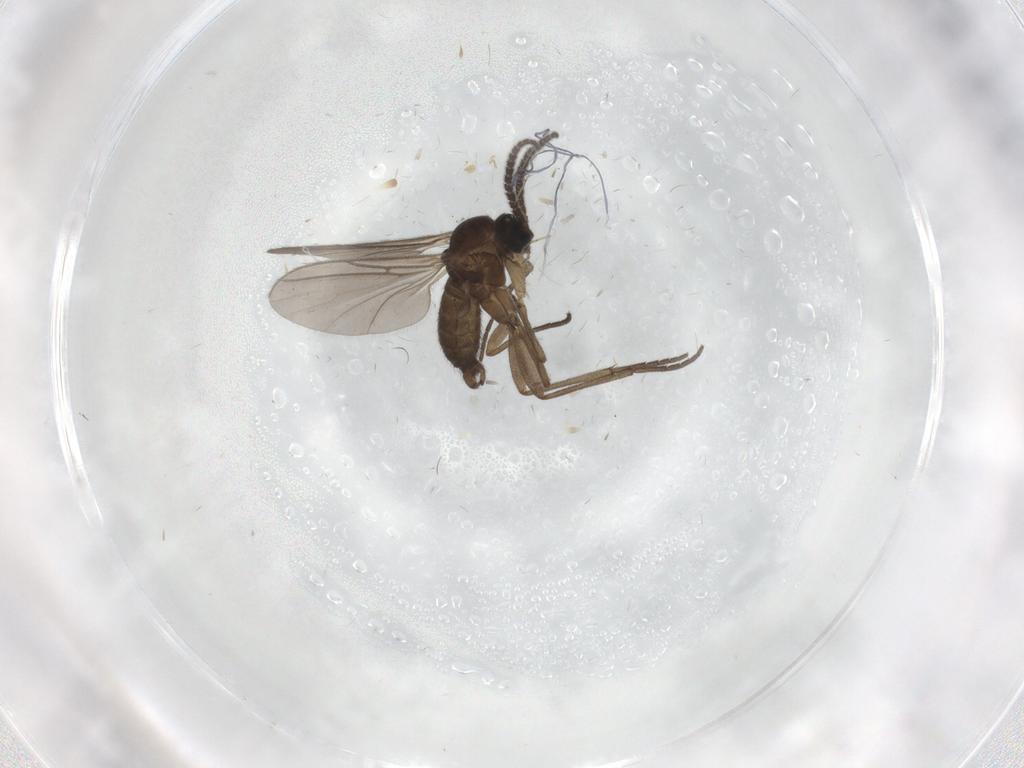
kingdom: Animalia
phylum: Arthropoda
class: Insecta
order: Diptera
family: Sciaridae
